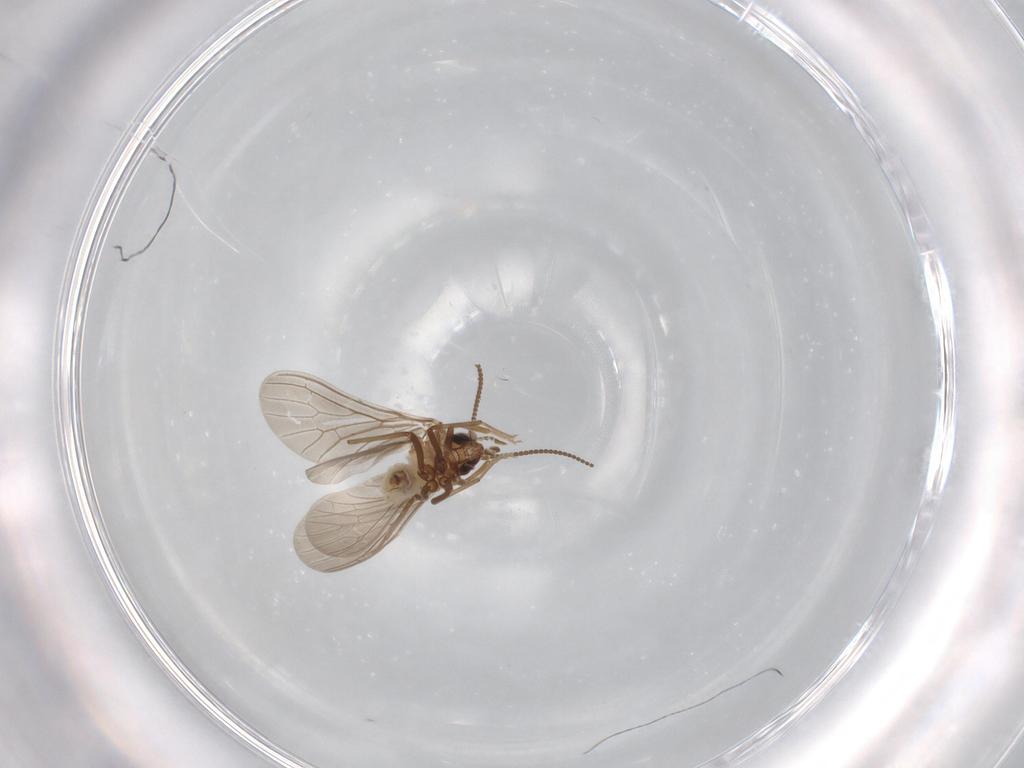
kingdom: Animalia
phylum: Arthropoda
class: Insecta
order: Neuroptera
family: Coniopterygidae
